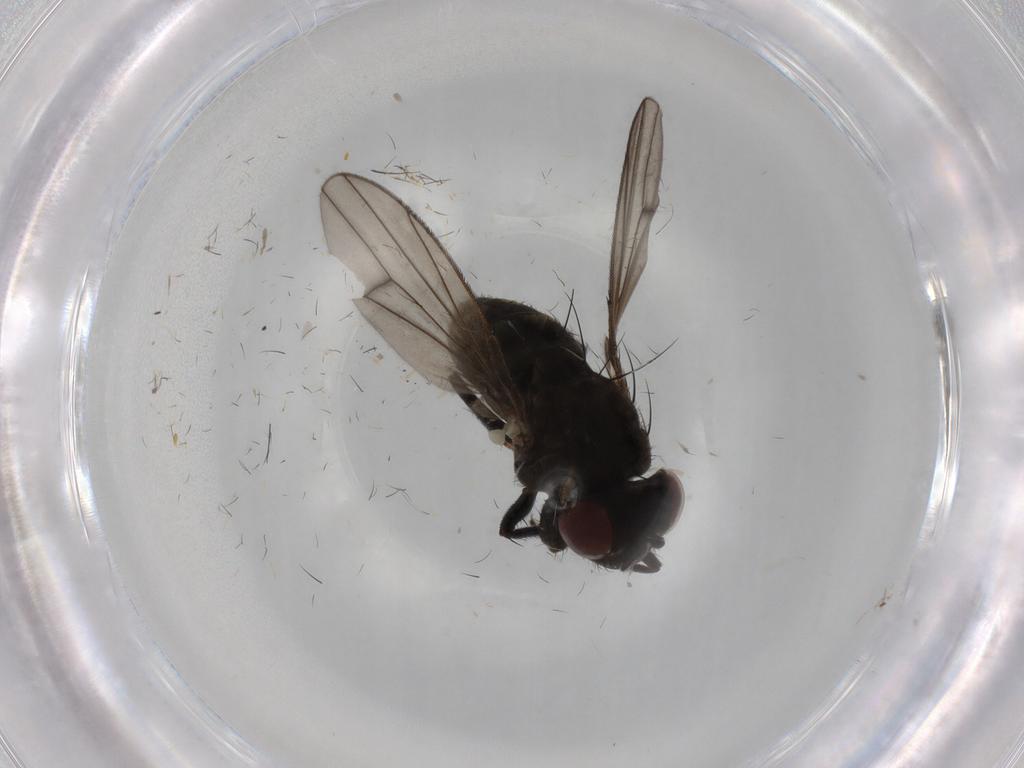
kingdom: Animalia
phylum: Arthropoda
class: Insecta
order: Diptera
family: Ephydridae
